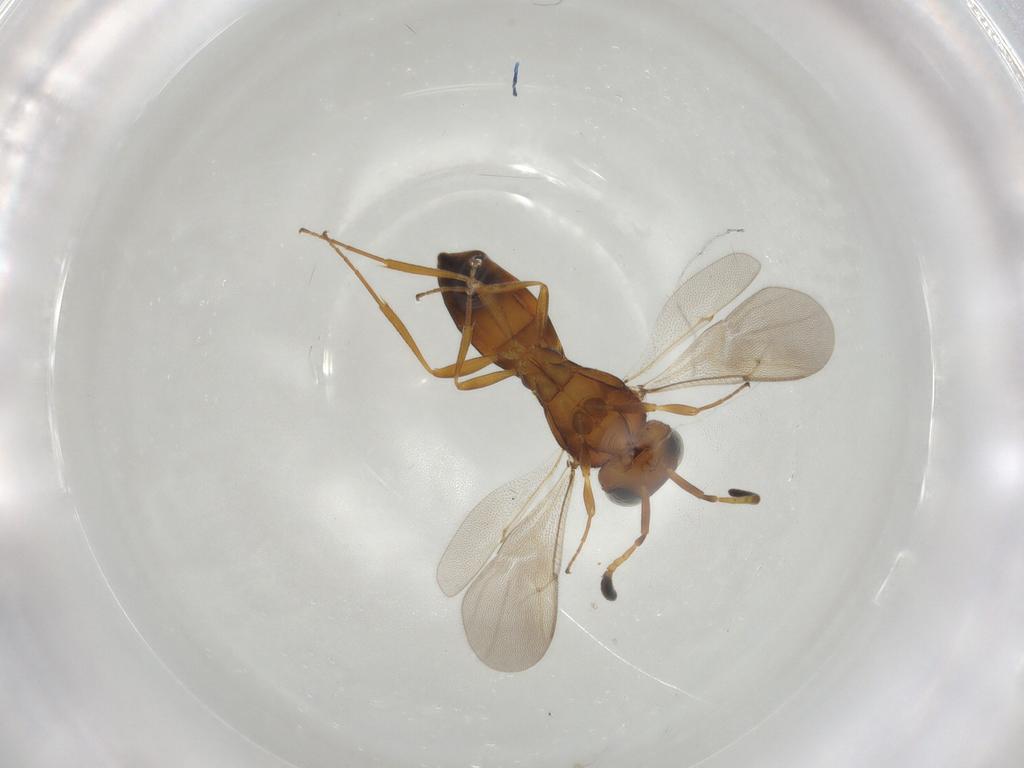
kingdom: Animalia
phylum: Arthropoda
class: Insecta
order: Hymenoptera
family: Scelionidae
